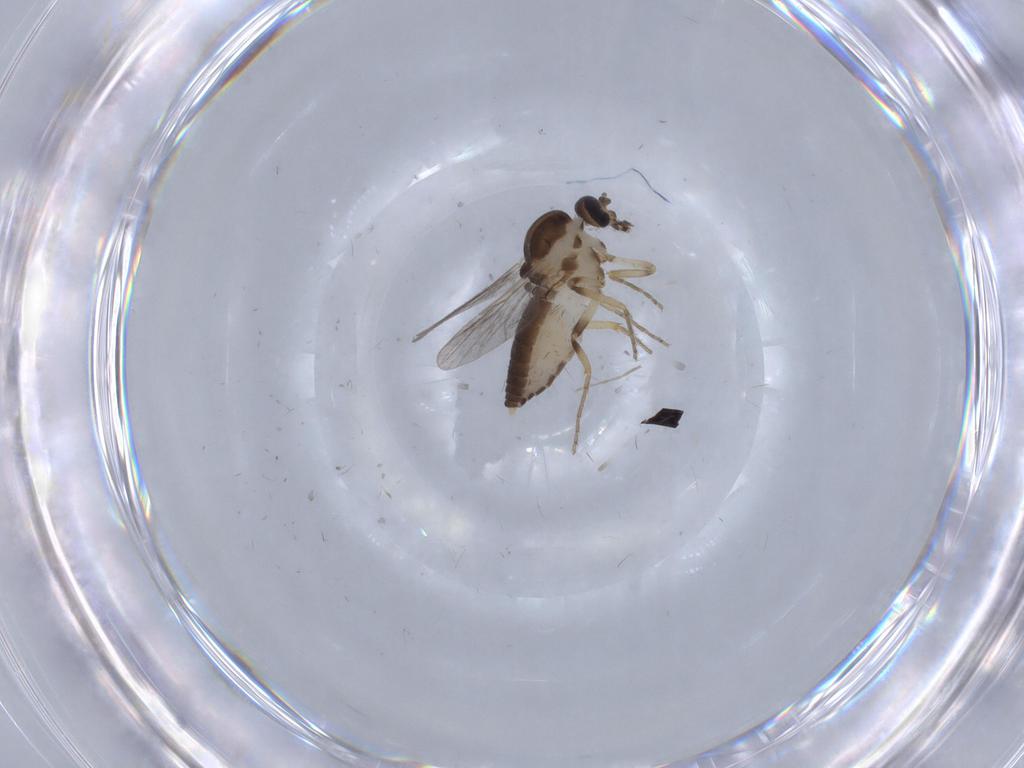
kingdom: Animalia
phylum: Arthropoda
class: Insecta
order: Diptera
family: Ceratopogonidae
